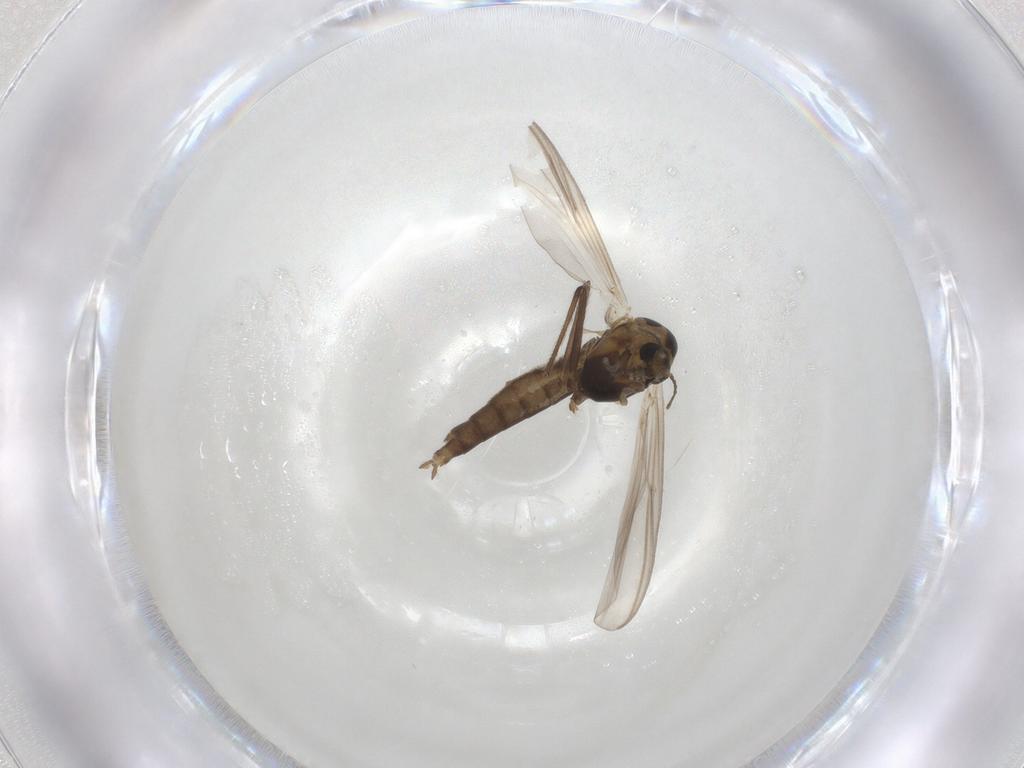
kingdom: Animalia
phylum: Arthropoda
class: Insecta
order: Diptera
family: Chironomidae
